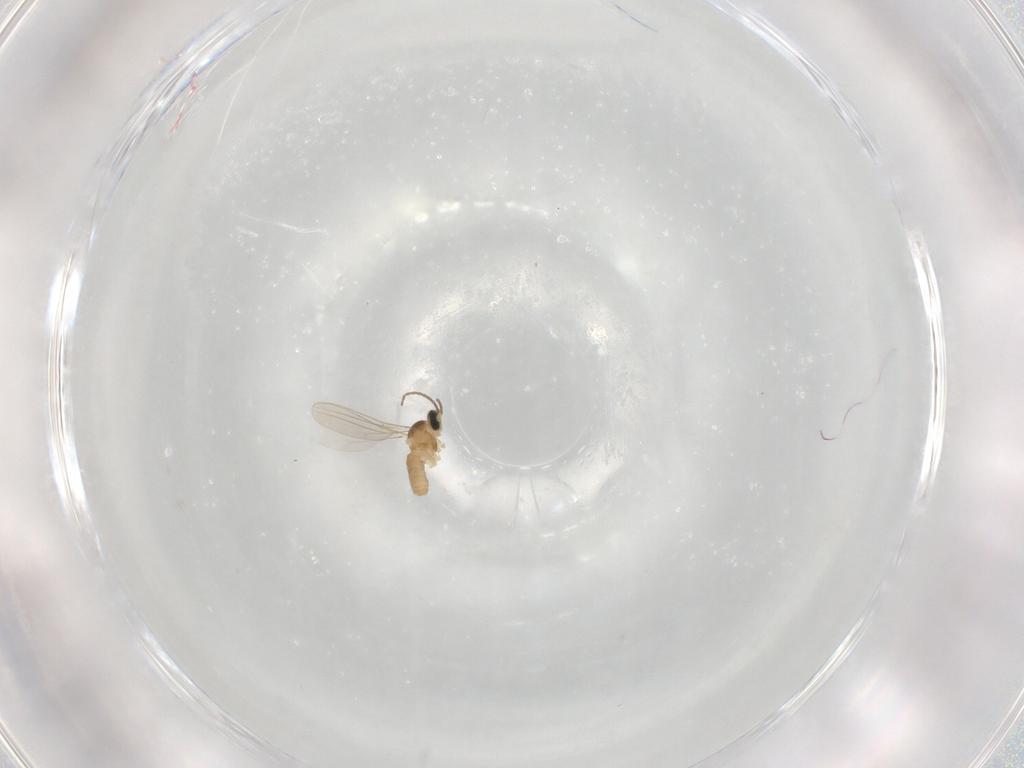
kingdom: Animalia
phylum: Arthropoda
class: Insecta
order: Diptera
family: Cecidomyiidae
